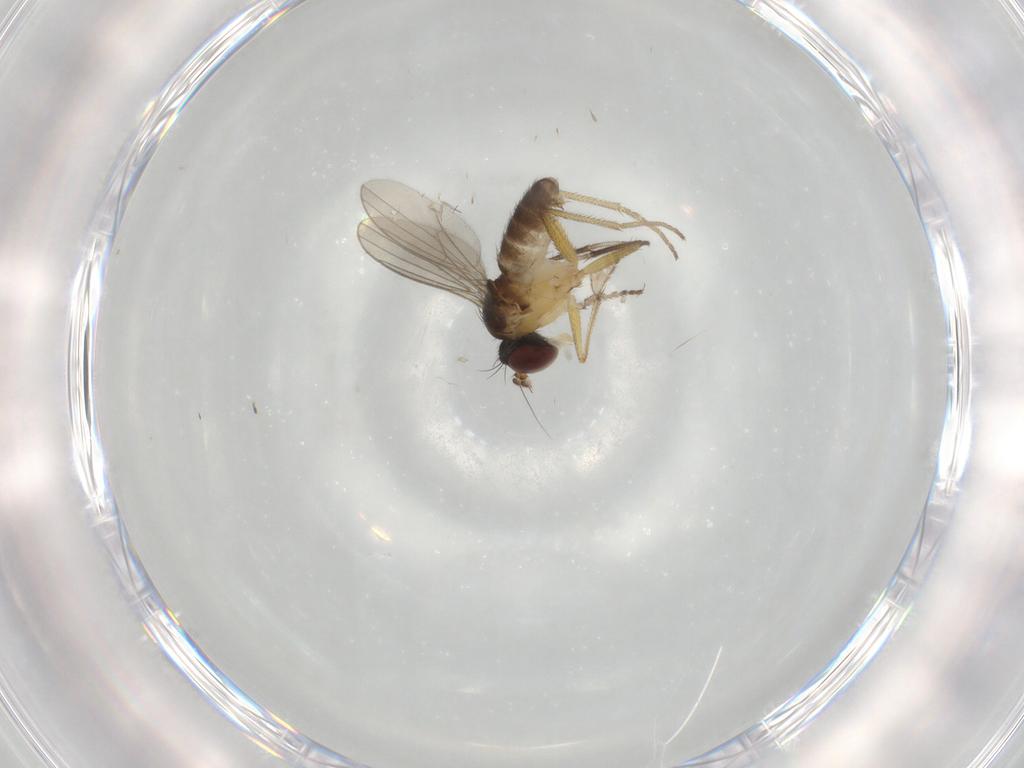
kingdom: Animalia
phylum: Arthropoda
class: Insecta
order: Diptera
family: Dolichopodidae
